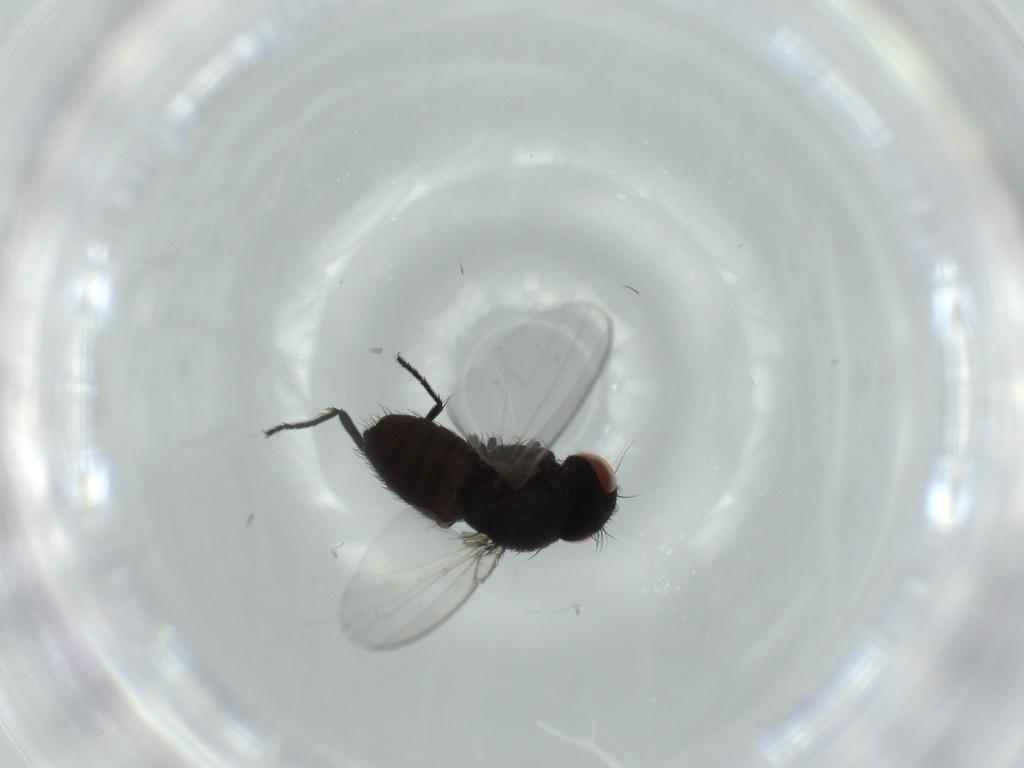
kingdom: Animalia
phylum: Arthropoda
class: Insecta
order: Diptera
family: Milichiidae
